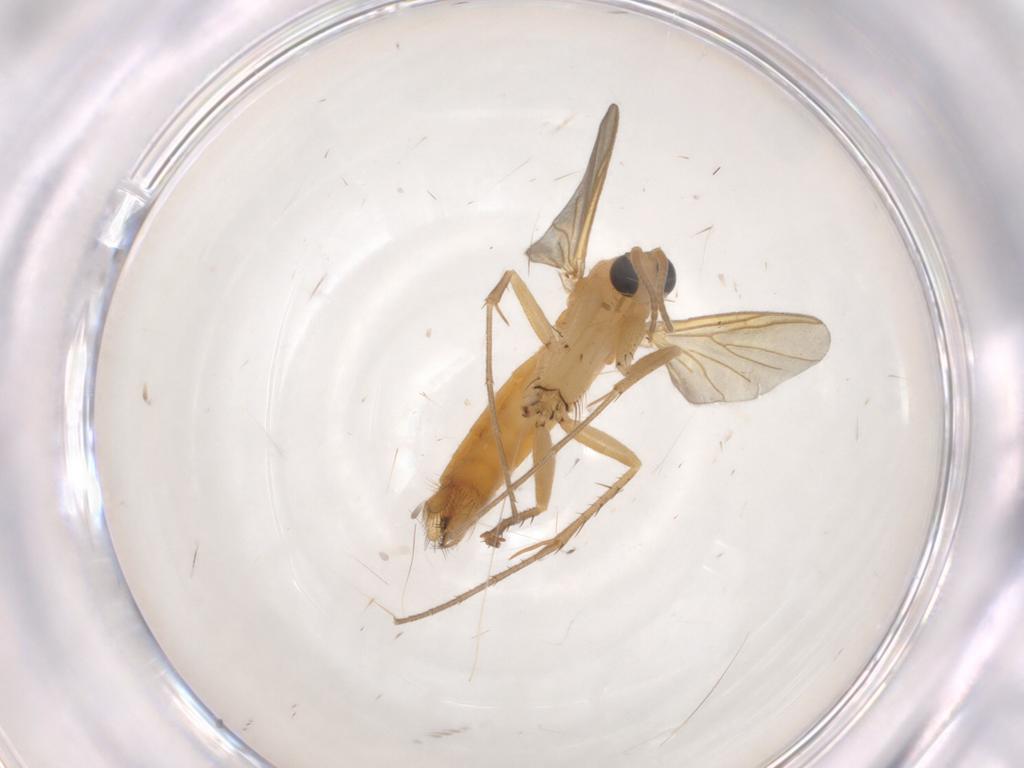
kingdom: Animalia
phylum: Arthropoda
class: Insecta
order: Diptera
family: Mycetophilidae
